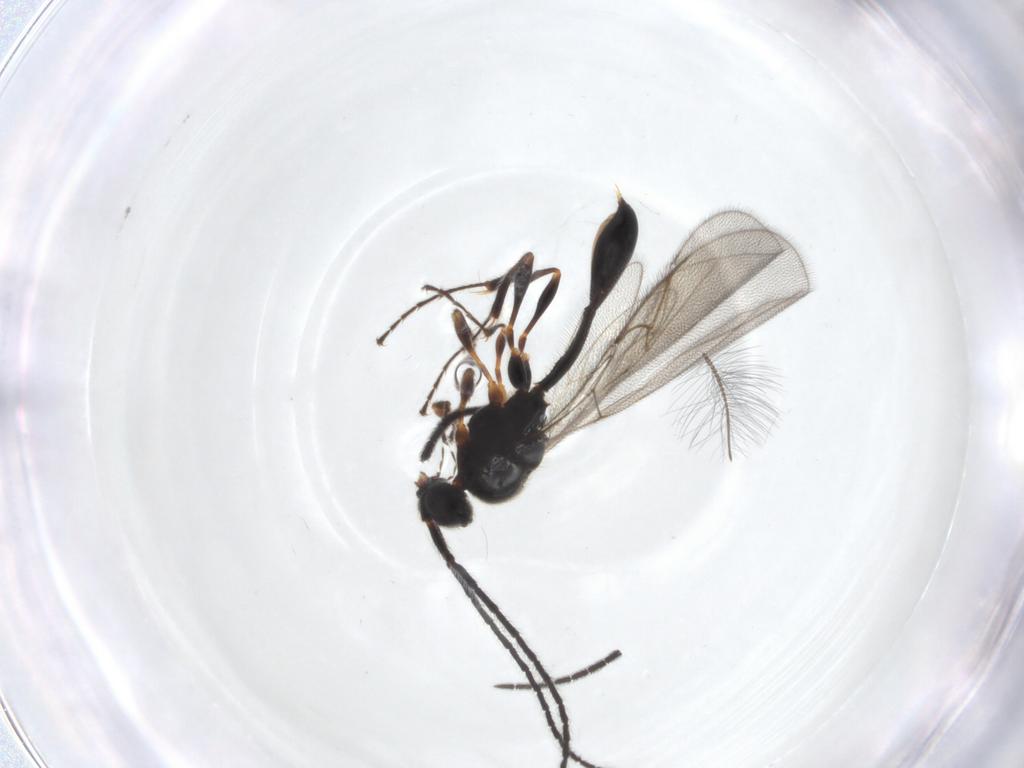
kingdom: Animalia
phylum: Arthropoda
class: Insecta
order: Hymenoptera
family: Diapriidae
